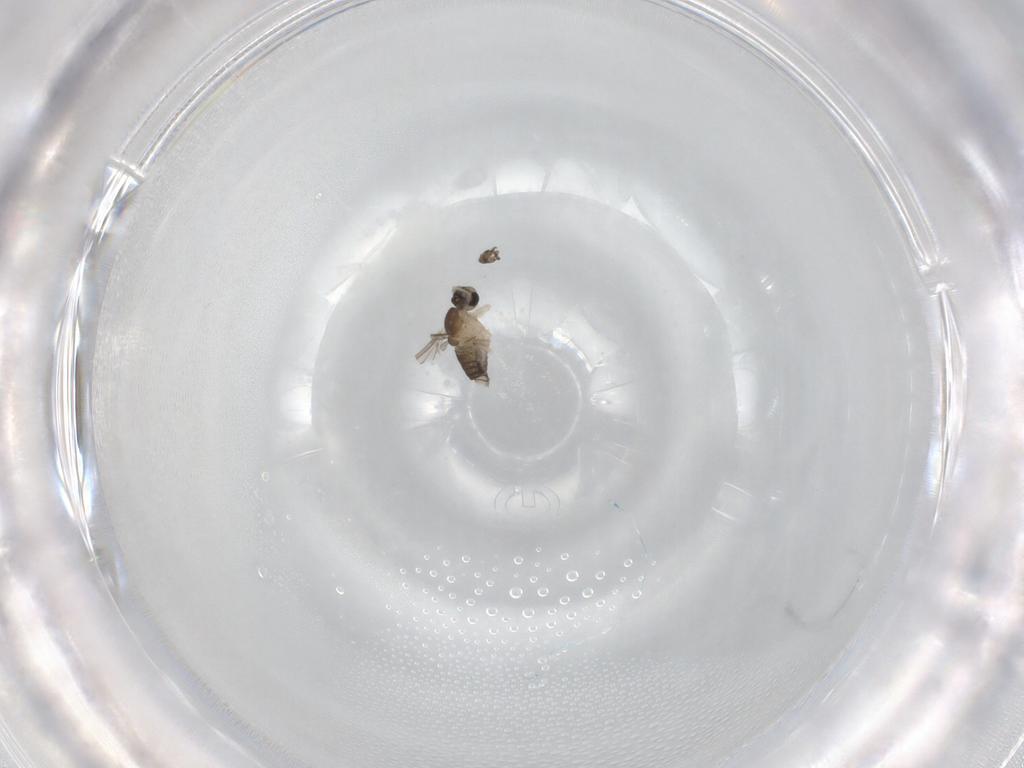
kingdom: Animalia
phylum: Arthropoda
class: Insecta
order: Diptera
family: Cecidomyiidae
